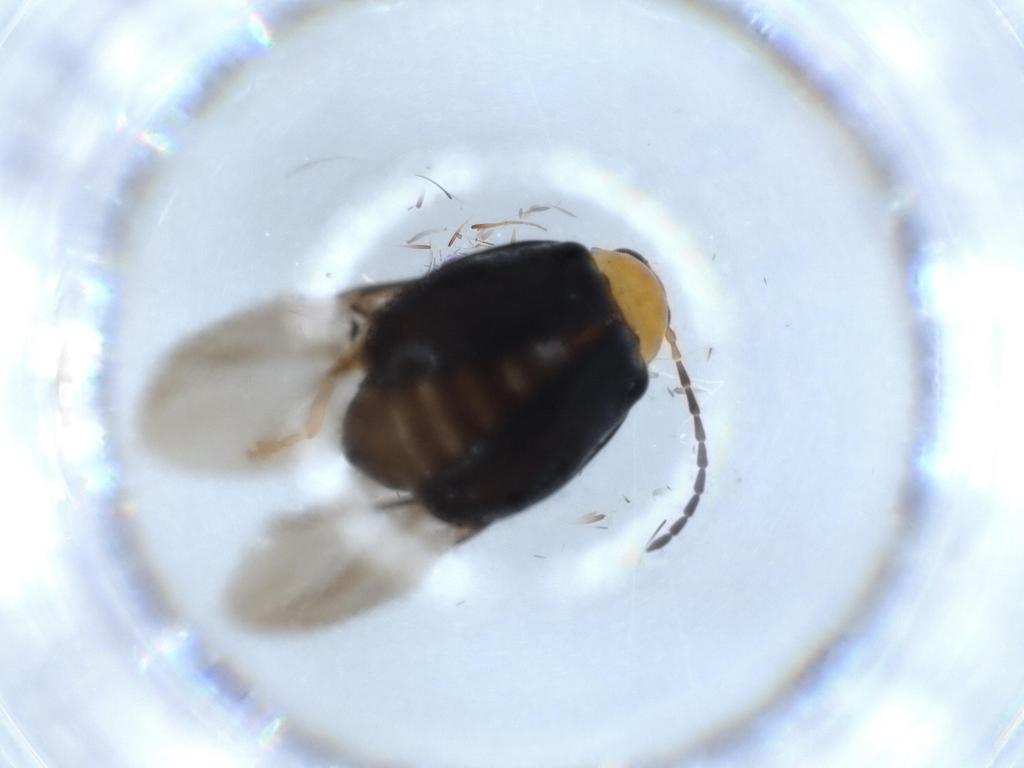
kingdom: Animalia
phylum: Arthropoda
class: Insecta
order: Coleoptera
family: Chrysomelidae
